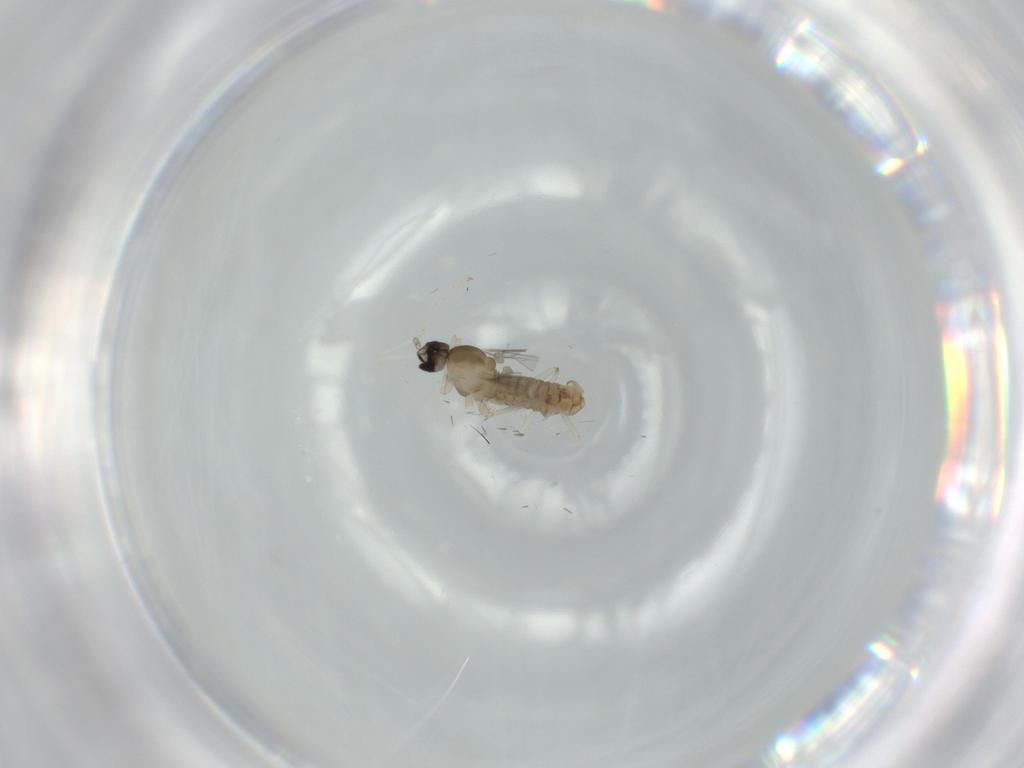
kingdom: Animalia
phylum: Arthropoda
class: Insecta
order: Diptera
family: Cecidomyiidae
